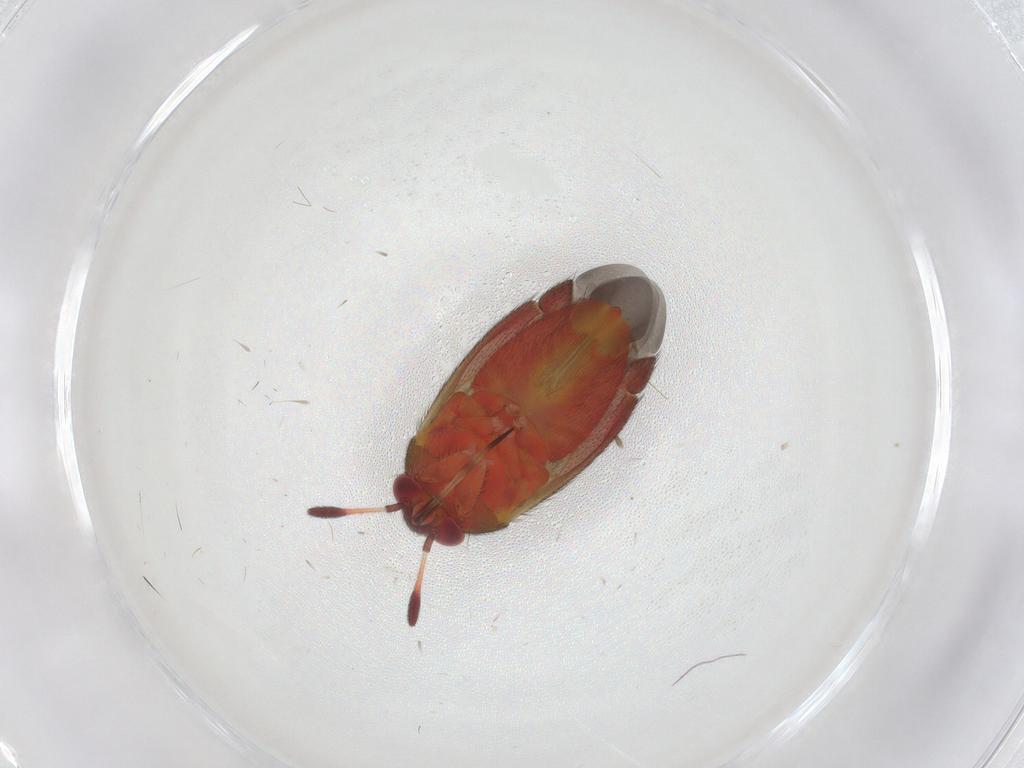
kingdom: Animalia
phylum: Arthropoda
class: Insecta
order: Hemiptera
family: Miridae
